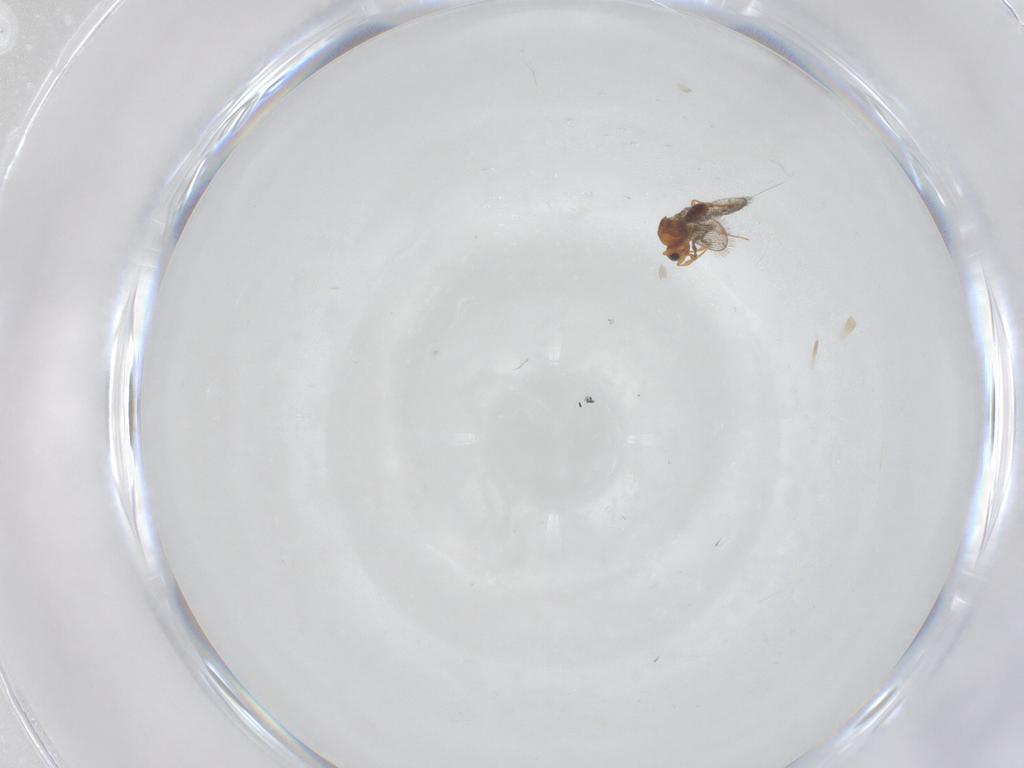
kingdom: Animalia
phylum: Arthropoda
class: Insecta
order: Hymenoptera
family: Platygastridae
